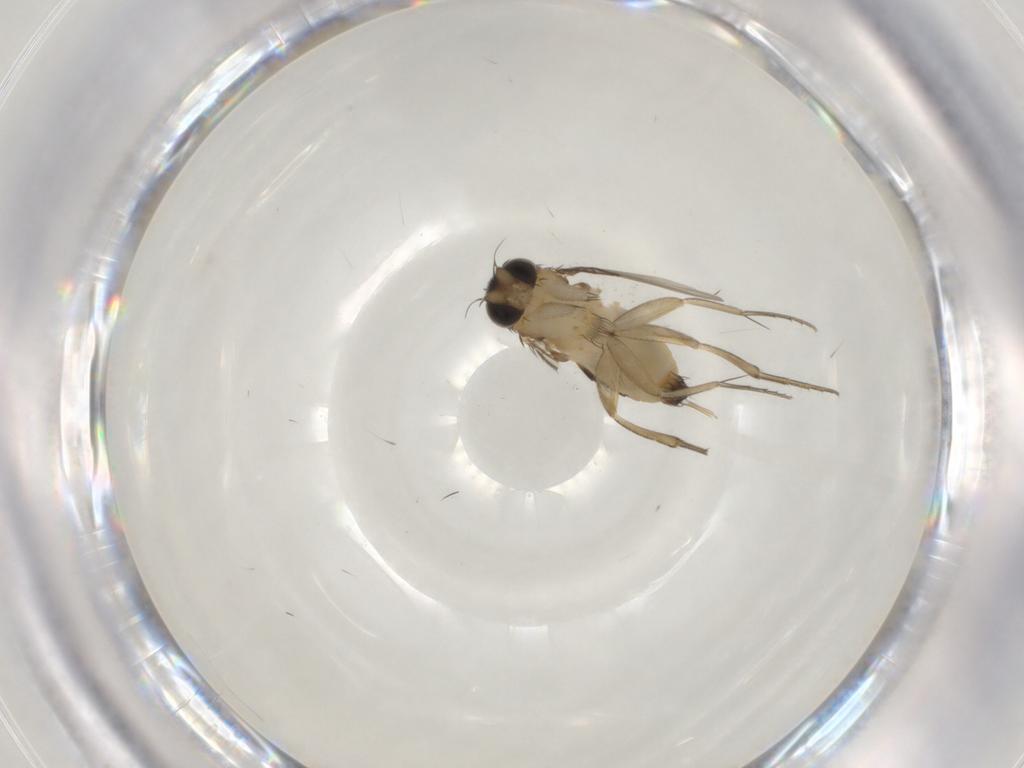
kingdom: Animalia
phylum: Arthropoda
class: Insecta
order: Diptera
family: Phoridae
